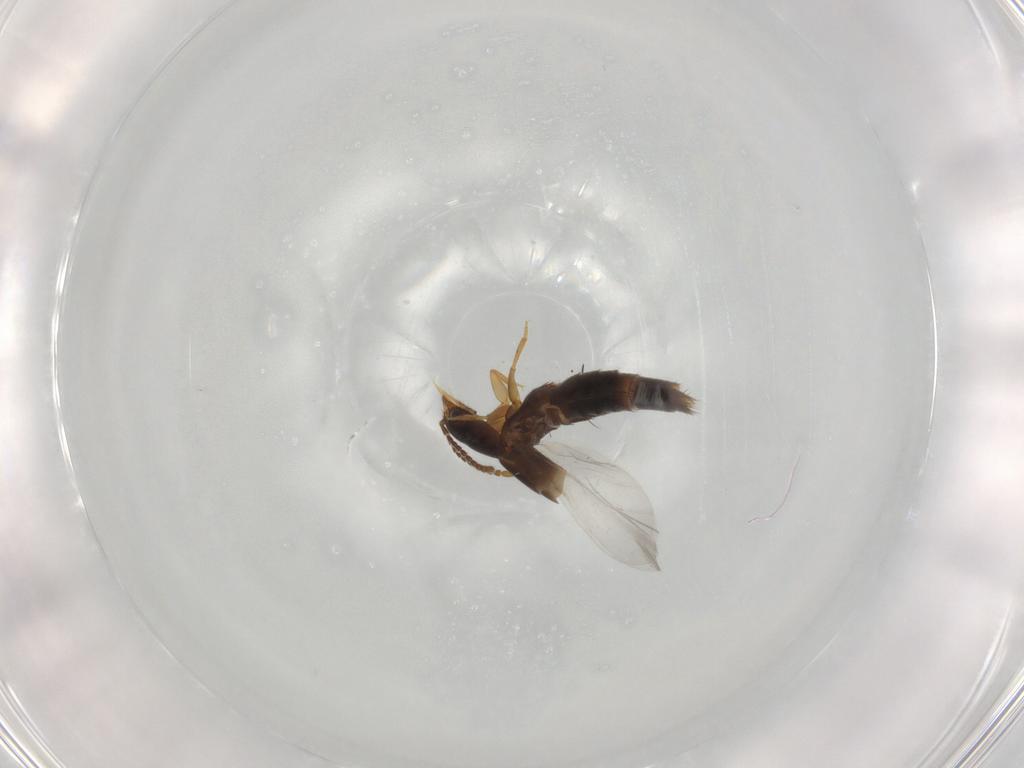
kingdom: Animalia
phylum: Arthropoda
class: Insecta
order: Coleoptera
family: Staphylinidae
